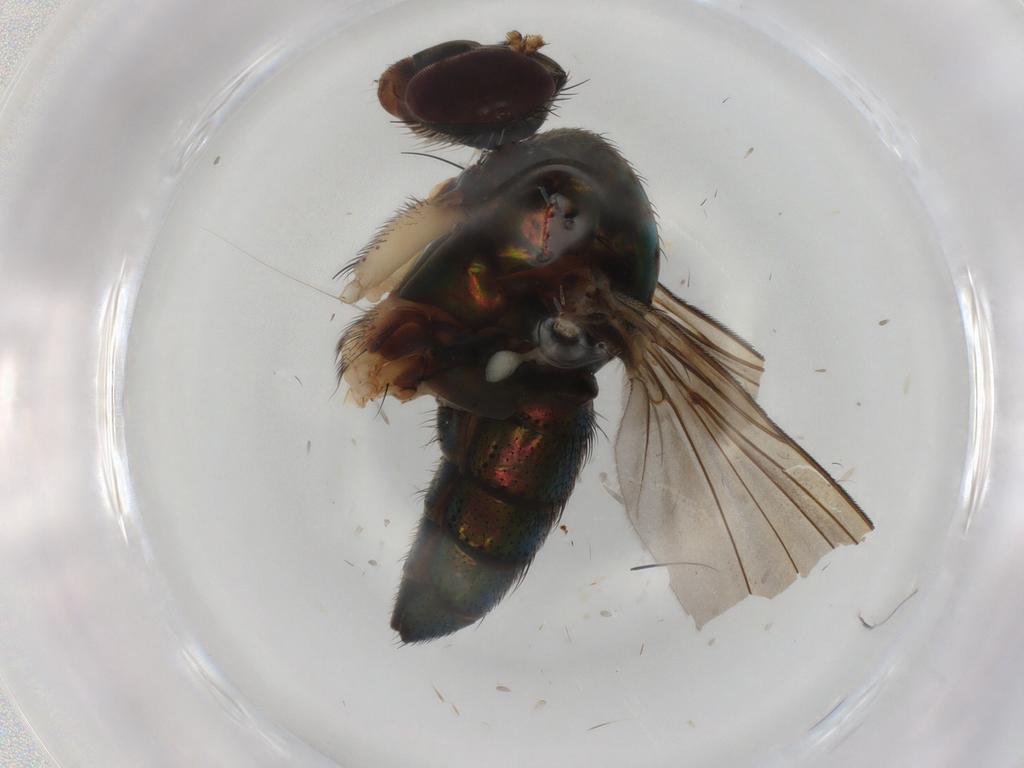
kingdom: Animalia
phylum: Arthropoda
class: Insecta
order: Diptera
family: Dolichopodidae
